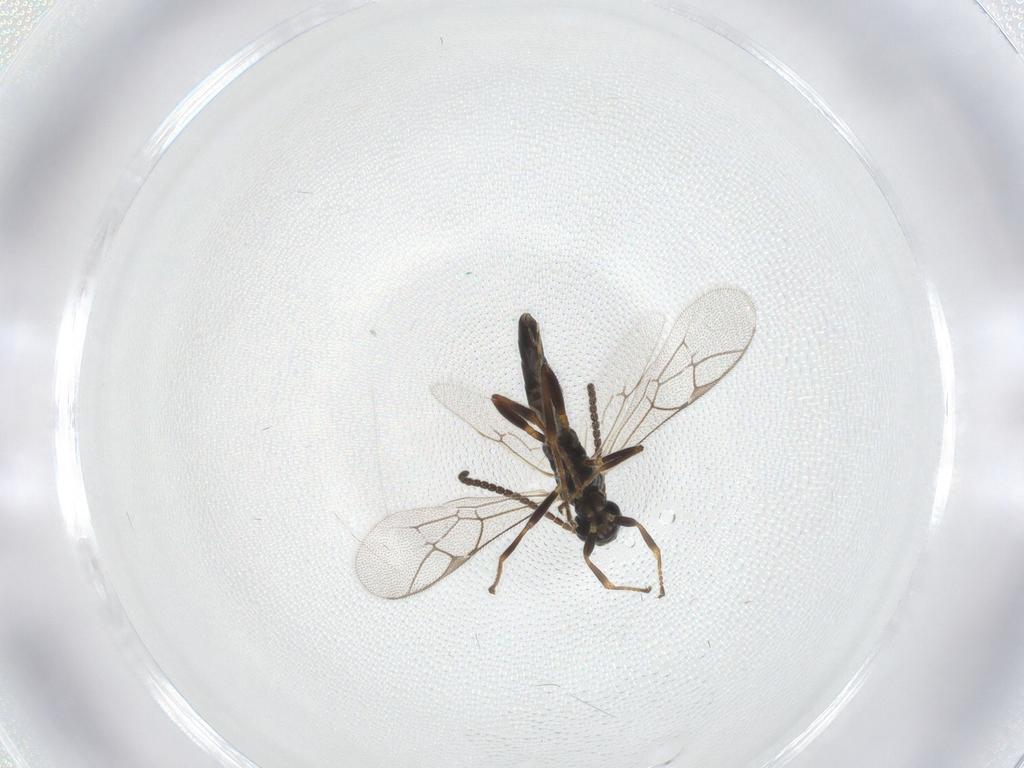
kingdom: Animalia
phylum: Arthropoda
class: Insecta
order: Hymenoptera
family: Ichneumonidae
